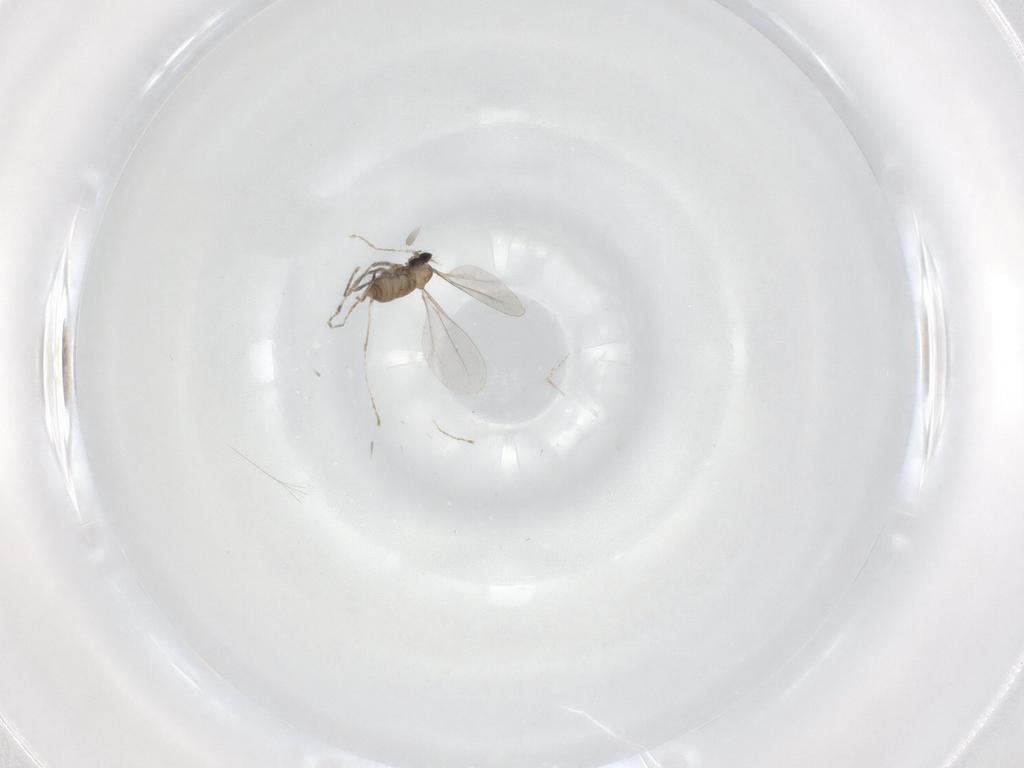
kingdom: Animalia
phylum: Arthropoda
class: Insecta
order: Diptera
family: Cecidomyiidae
